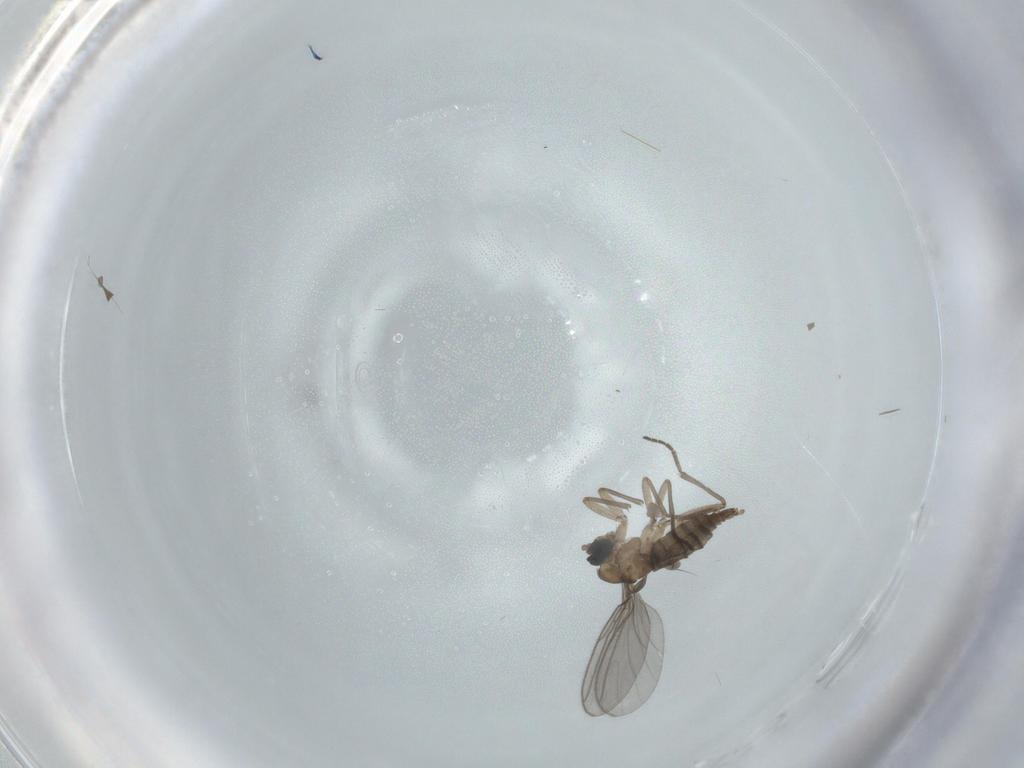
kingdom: Animalia
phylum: Arthropoda
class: Insecta
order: Diptera
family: Sciaridae
